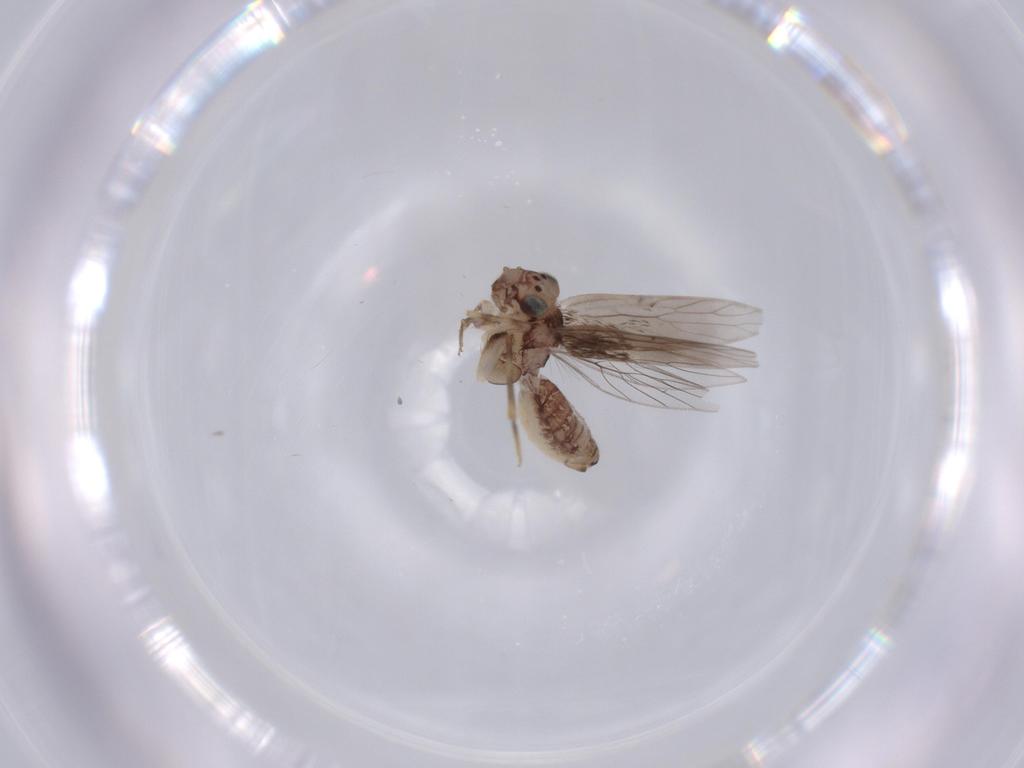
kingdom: Animalia
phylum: Arthropoda
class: Insecta
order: Psocodea
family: Lepidopsocidae
